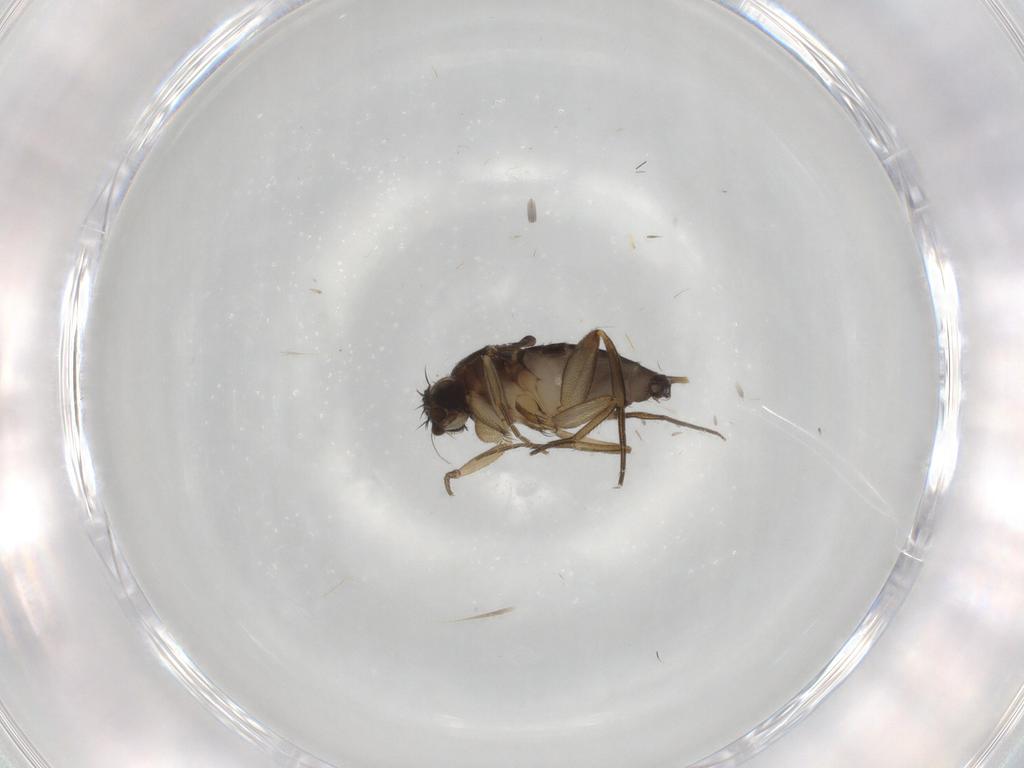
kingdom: Animalia
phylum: Arthropoda
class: Insecta
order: Diptera
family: Phoridae
